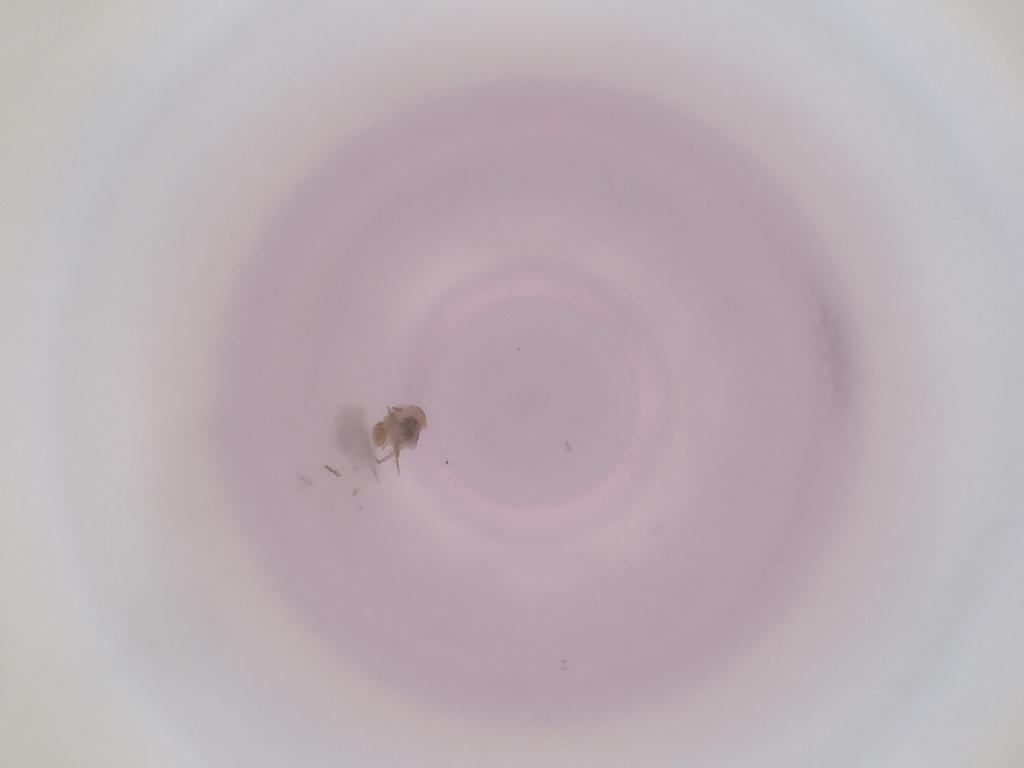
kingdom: Animalia
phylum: Arthropoda
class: Insecta
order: Diptera
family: Cecidomyiidae
